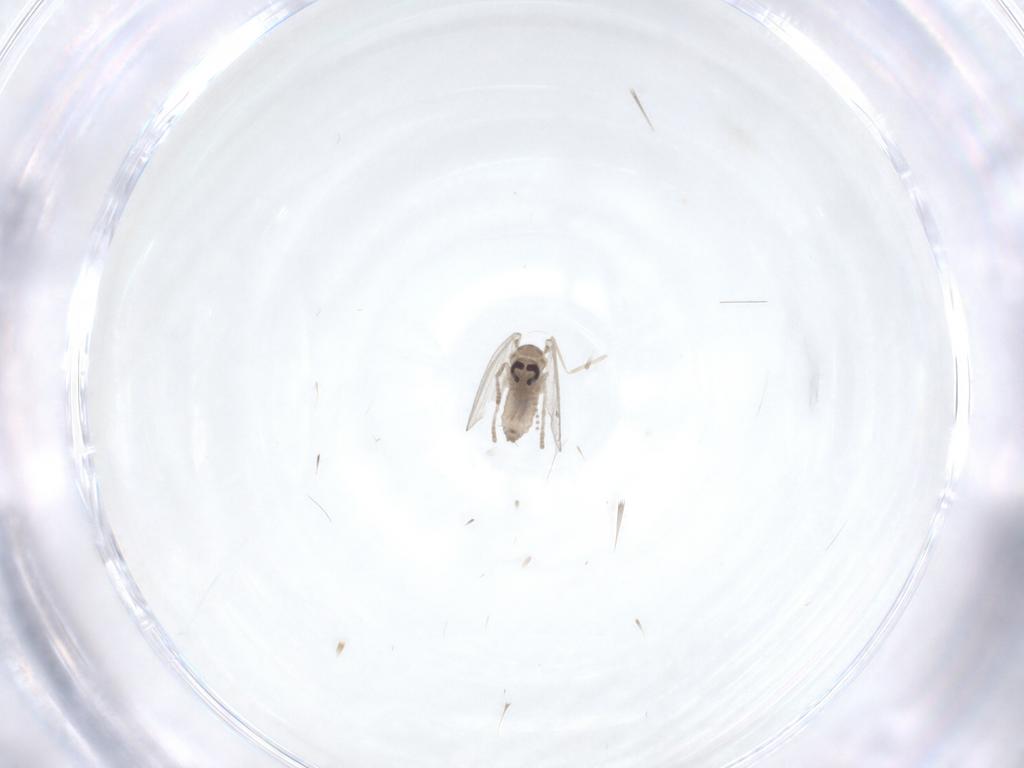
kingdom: Animalia
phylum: Arthropoda
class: Insecta
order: Diptera
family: Psychodidae
